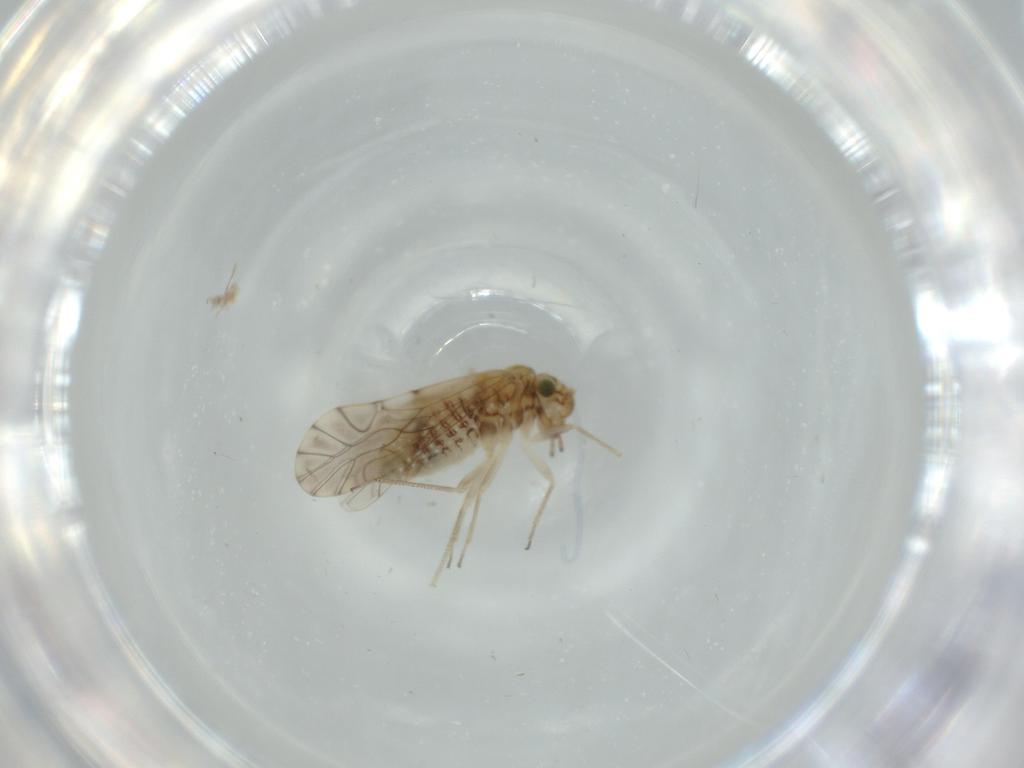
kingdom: Animalia
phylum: Arthropoda
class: Insecta
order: Psocodea
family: Lachesillidae
